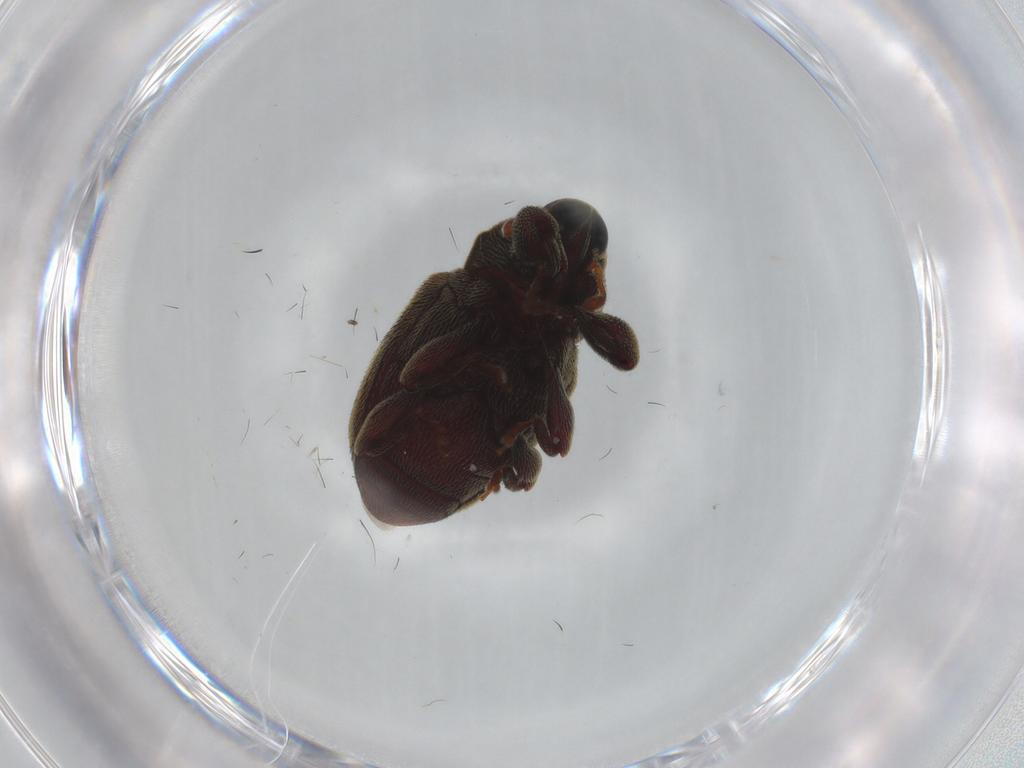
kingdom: Animalia
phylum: Arthropoda
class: Insecta
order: Coleoptera
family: Curculionidae
